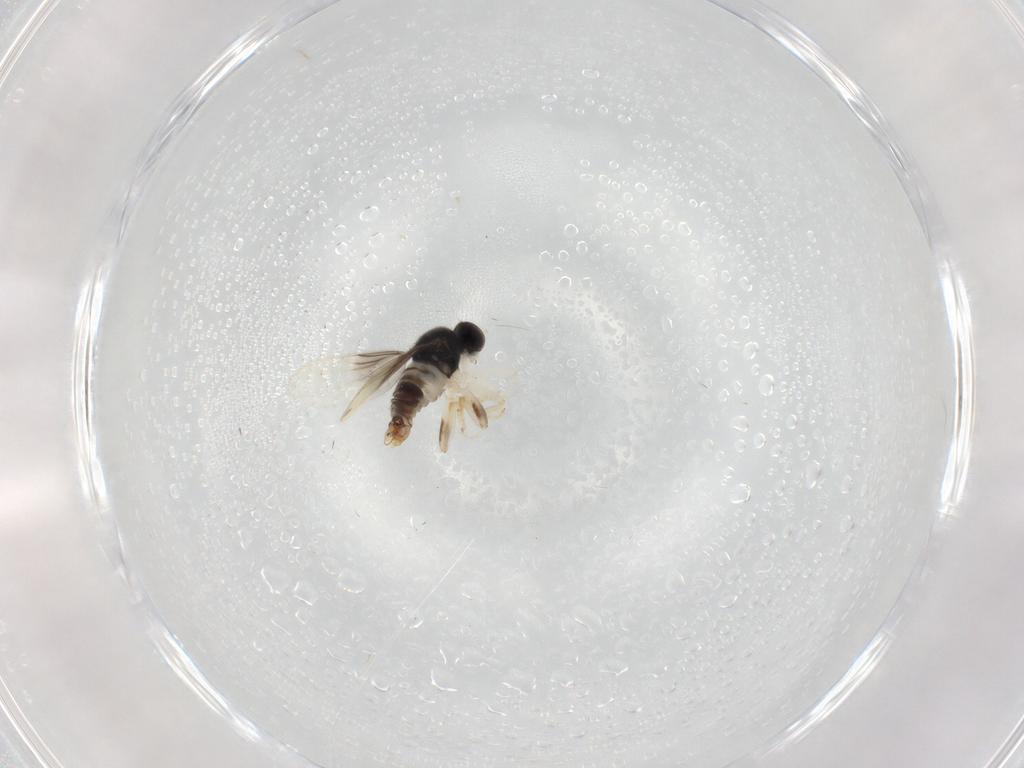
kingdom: Animalia
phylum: Arthropoda
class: Insecta
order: Diptera
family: Hybotidae
